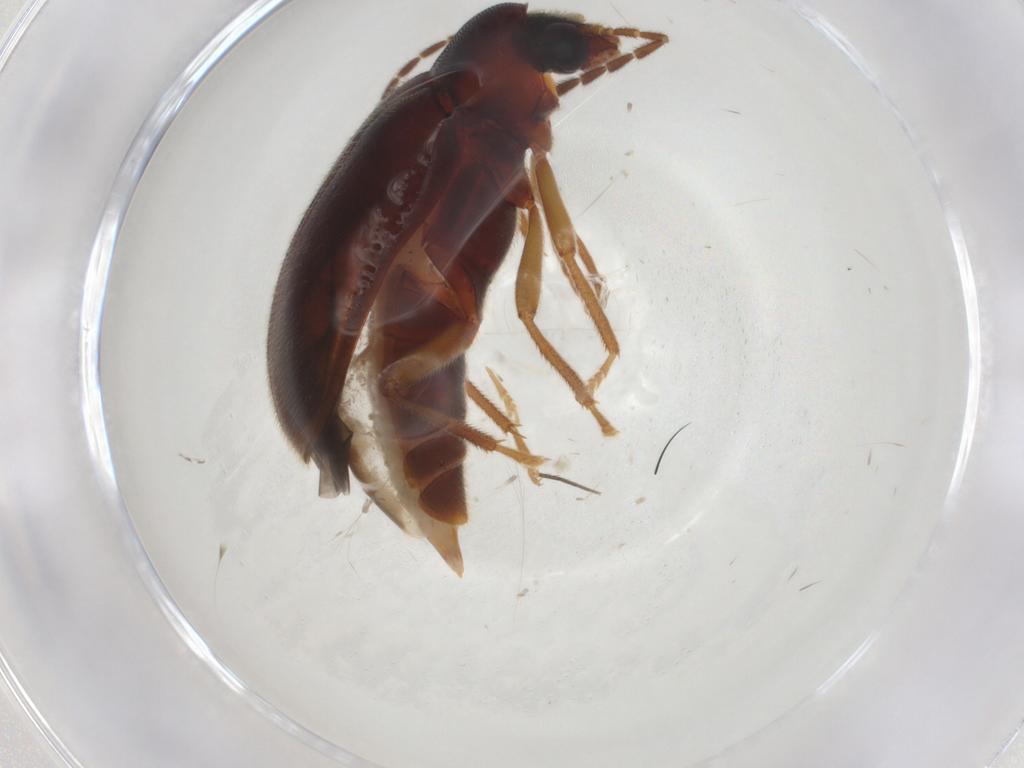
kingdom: Animalia
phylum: Arthropoda
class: Insecta
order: Coleoptera
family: Ptilodactylidae
